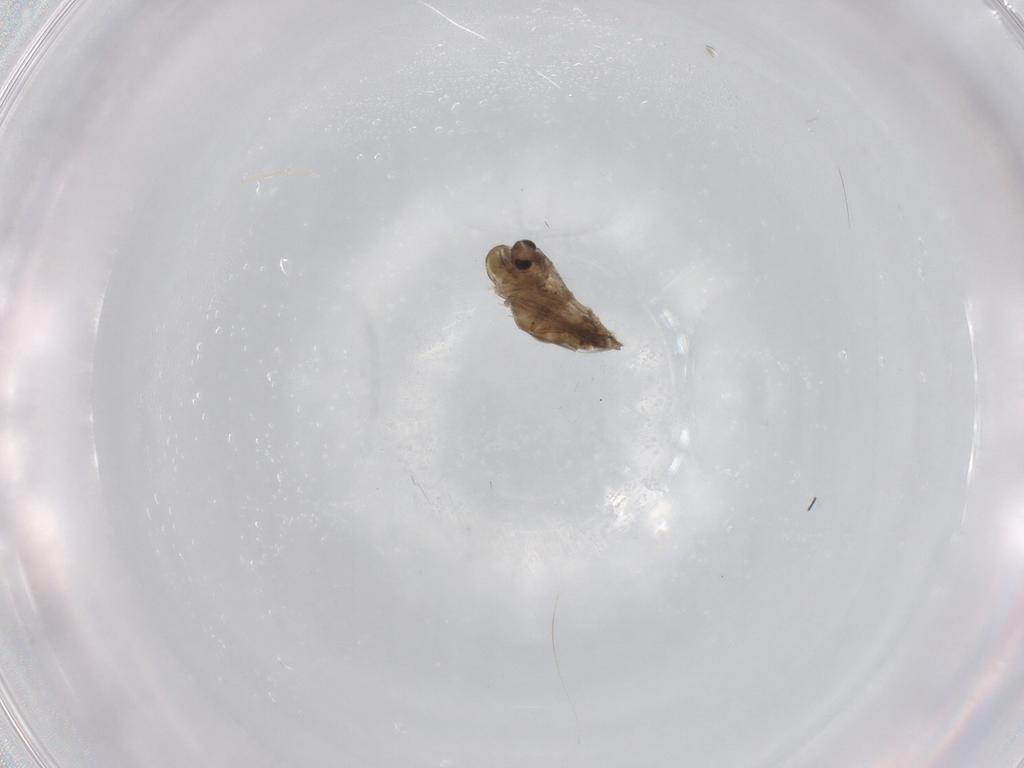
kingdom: Animalia
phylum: Arthropoda
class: Insecta
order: Diptera
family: Chironomidae
